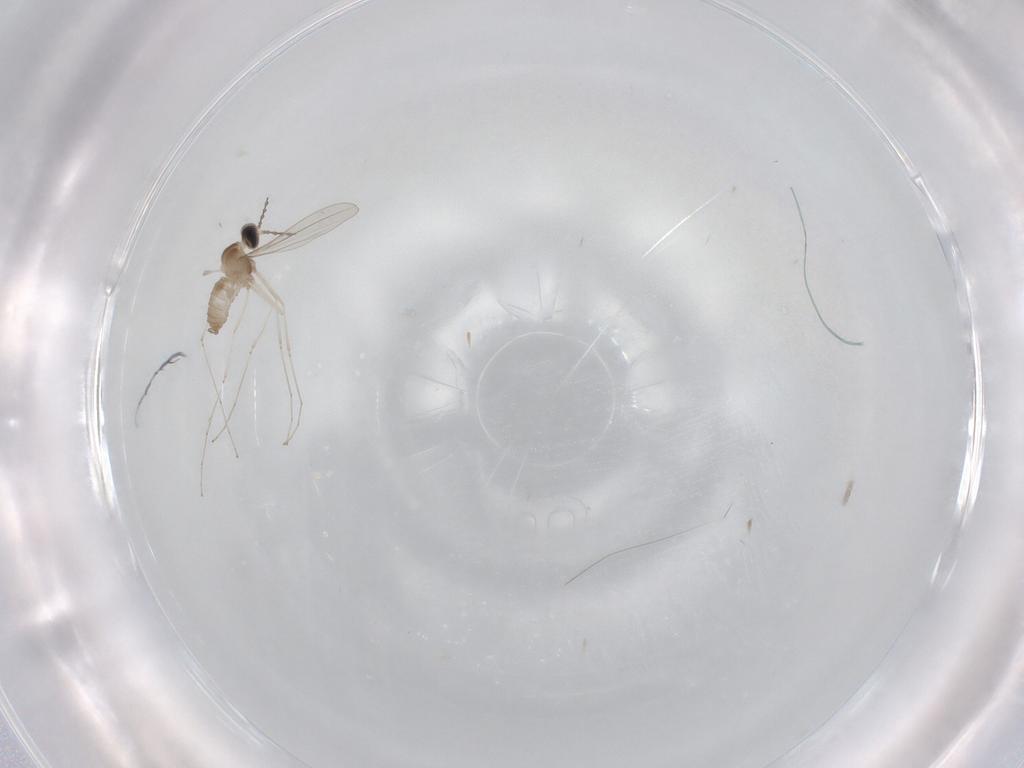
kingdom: Animalia
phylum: Arthropoda
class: Insecta
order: Diptera
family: Cecidomyiidae
